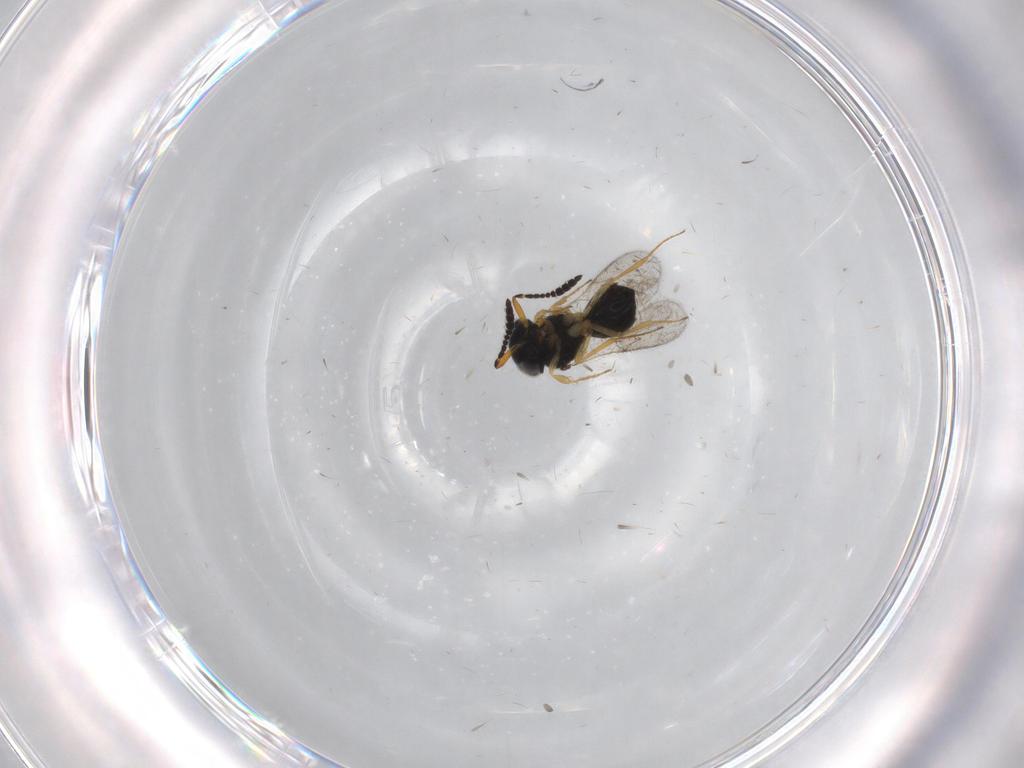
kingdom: Animalia
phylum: Arthropoda
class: Insecta
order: Hymenoptera
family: Scelionidae
